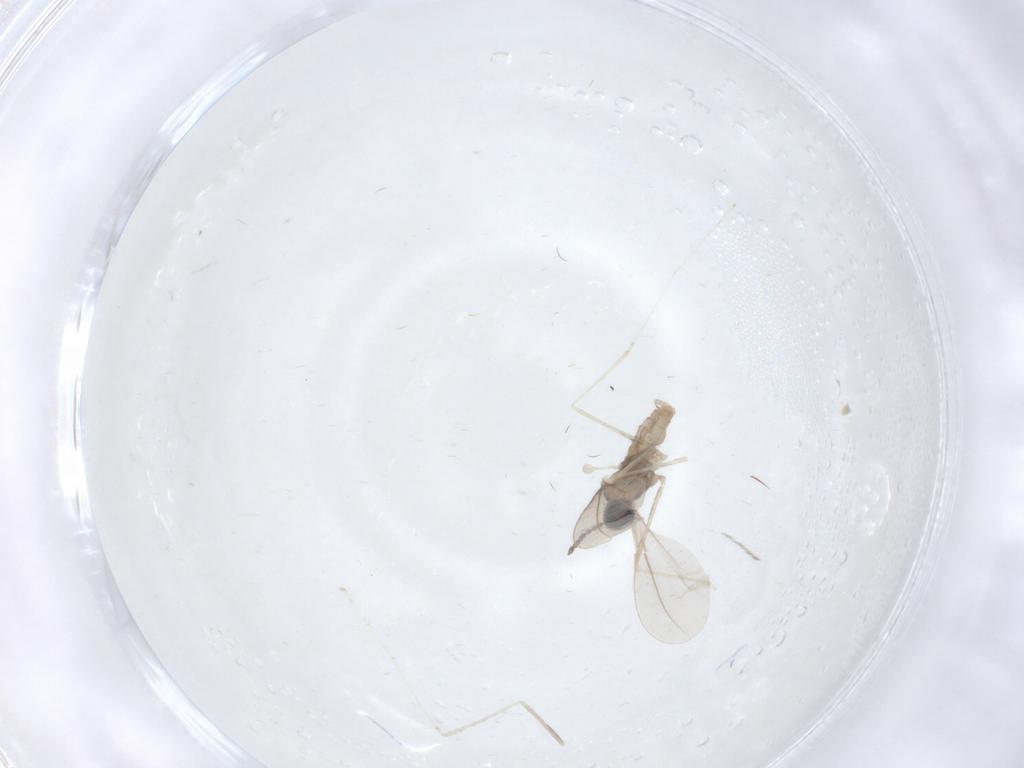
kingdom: Animalia
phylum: Arthropoda
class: Insecta
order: Diptera
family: Cecidomyiidae
